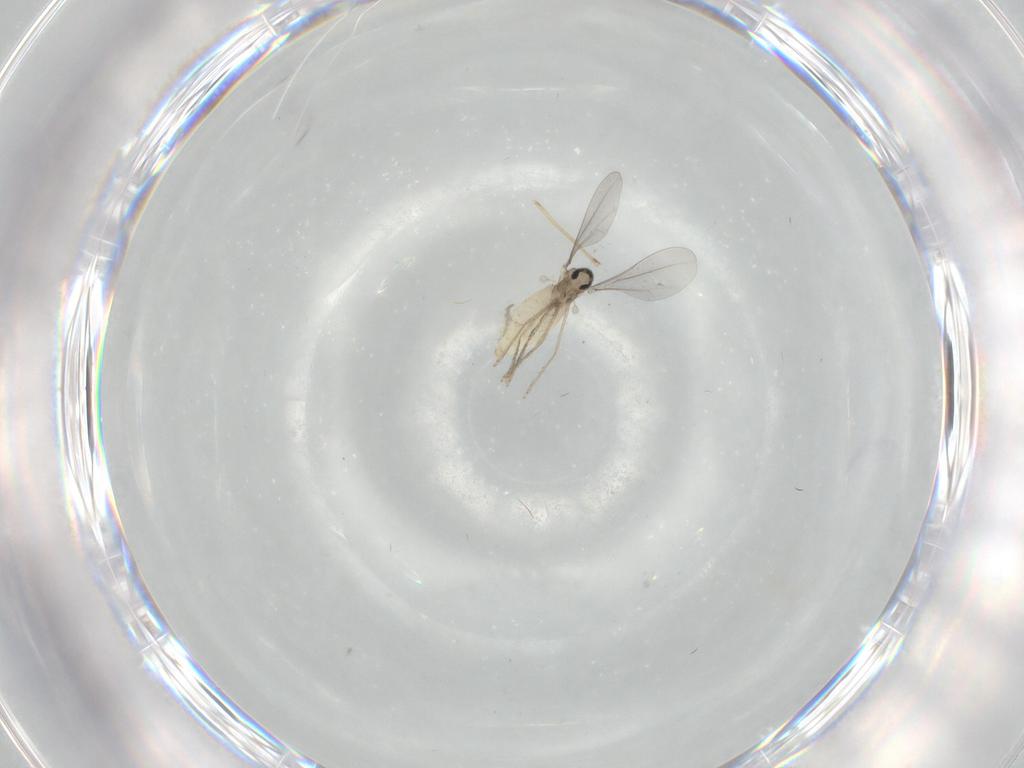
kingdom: Animalia
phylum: Arthropoda
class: Insecta
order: Diptera
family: Chironomidae
